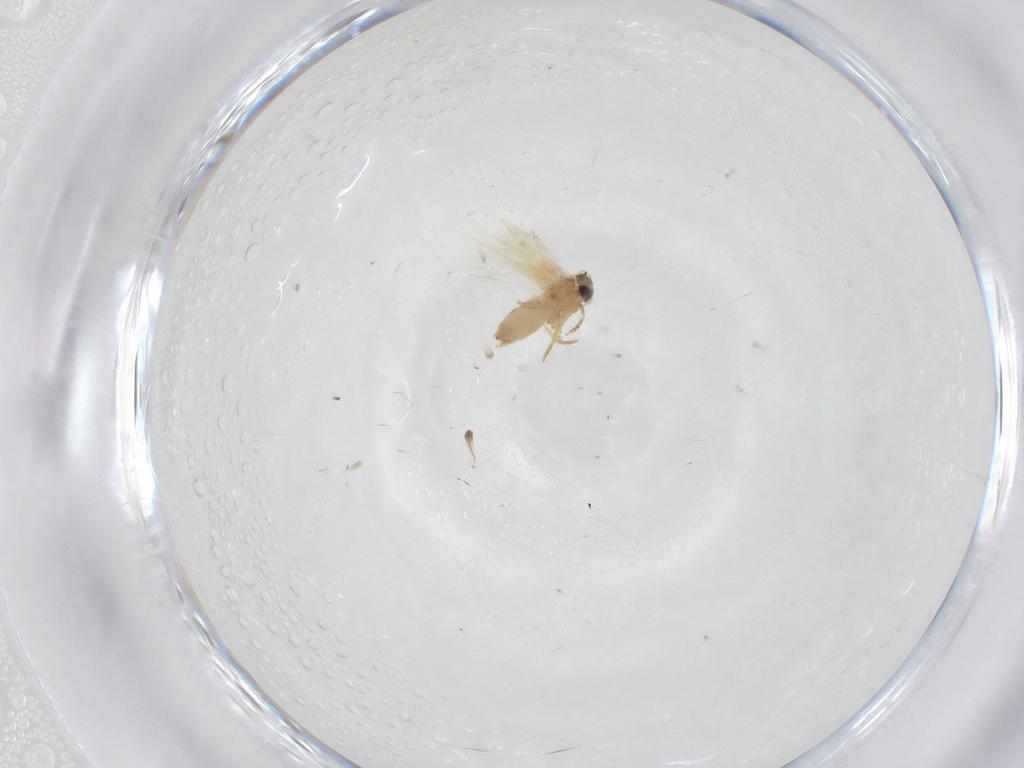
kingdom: Animalia
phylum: Arthropoda
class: Insecta
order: Lepidoptera
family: Crambidae
